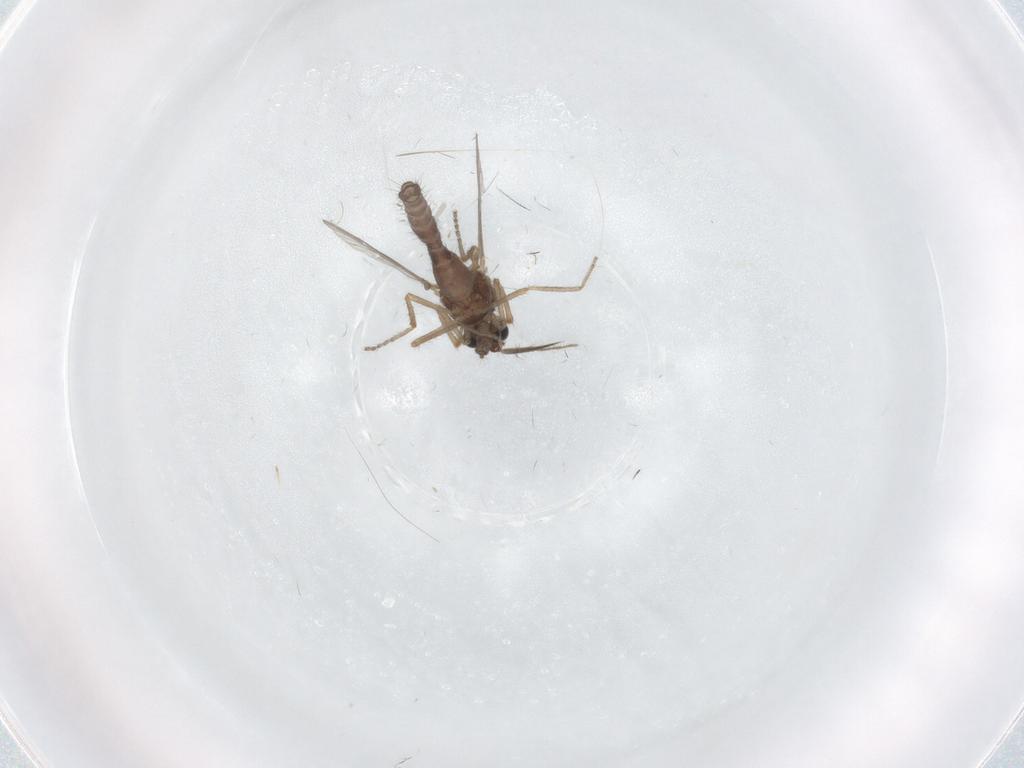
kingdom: Animalia
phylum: Arthropoda
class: Insecta
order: Diptera
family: Ceratopogonidae
